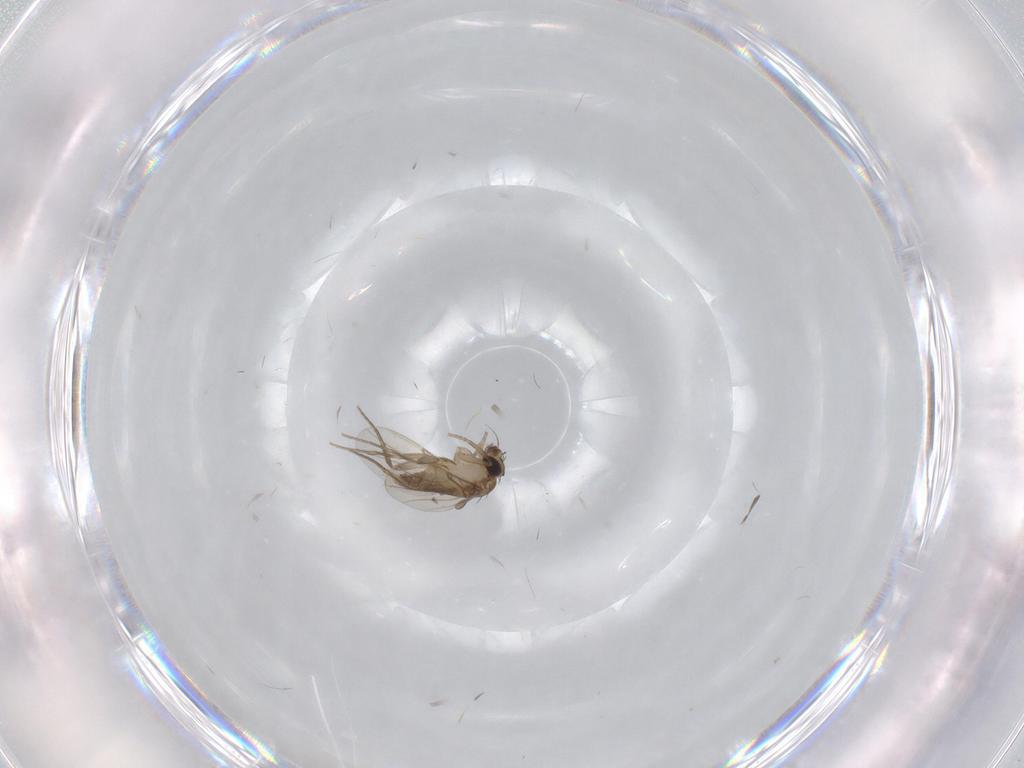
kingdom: Animalia
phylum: Arthropoda
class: Insecta
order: Diptera
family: Phoridae
